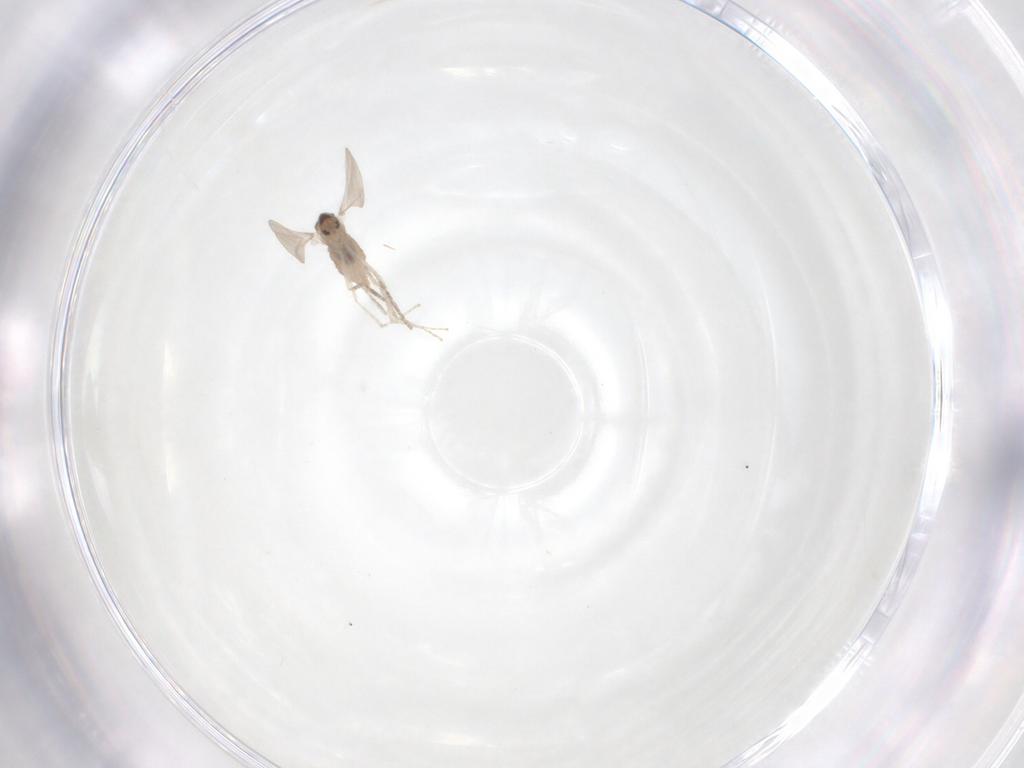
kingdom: Animalia
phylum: Arthropoda
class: Insecta
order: Diptera
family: Cecidomyiidae
